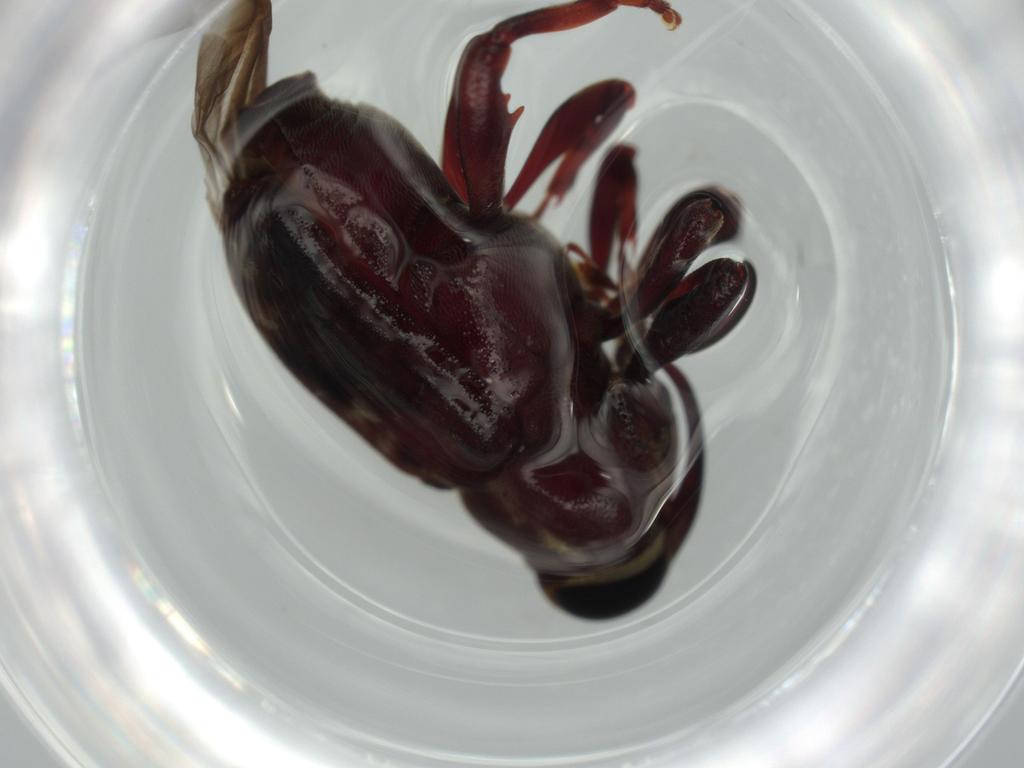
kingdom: Animalia
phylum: Arthropoda
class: Insecta
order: Coleoptera
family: Curculionidae
